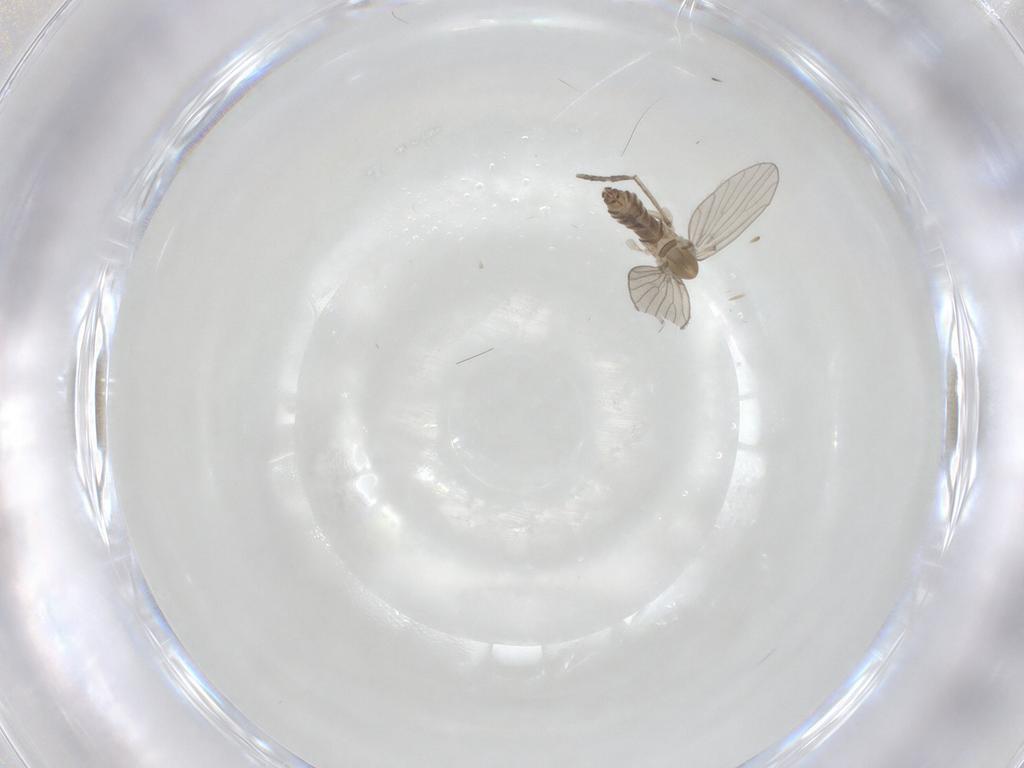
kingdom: Animalia
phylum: Arthropoda
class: Insecta
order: Diptera
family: Psychodidae
